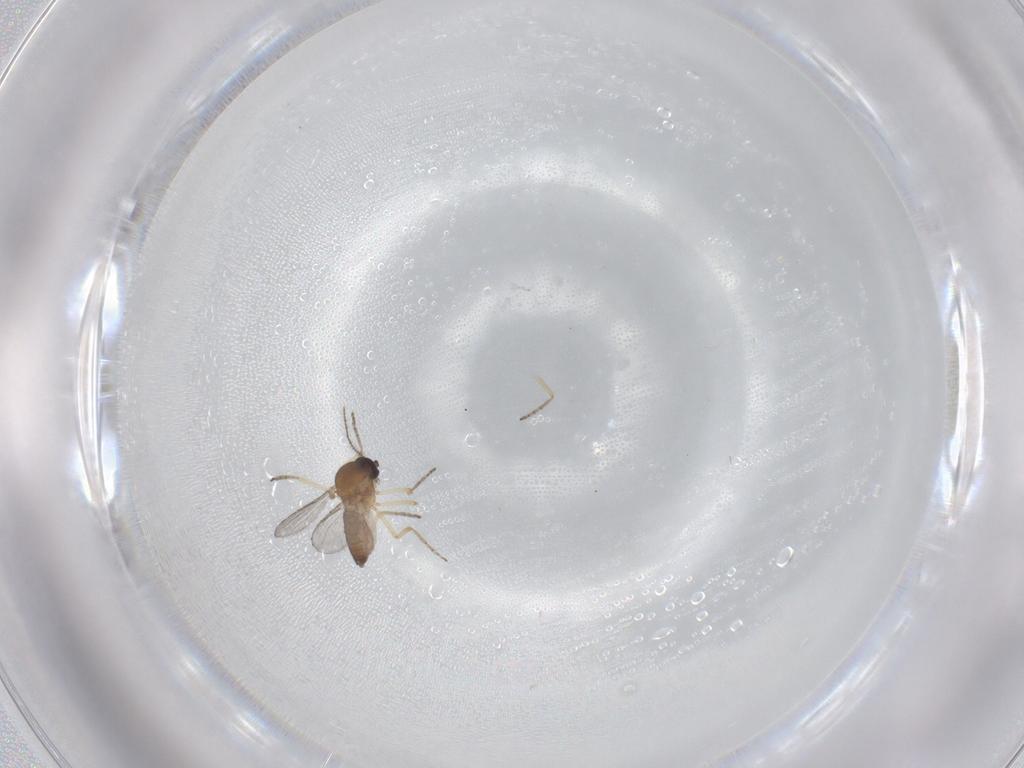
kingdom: Animalia
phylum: Arthropoda
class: Insecta
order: Diptera
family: Ceratopogonidae
